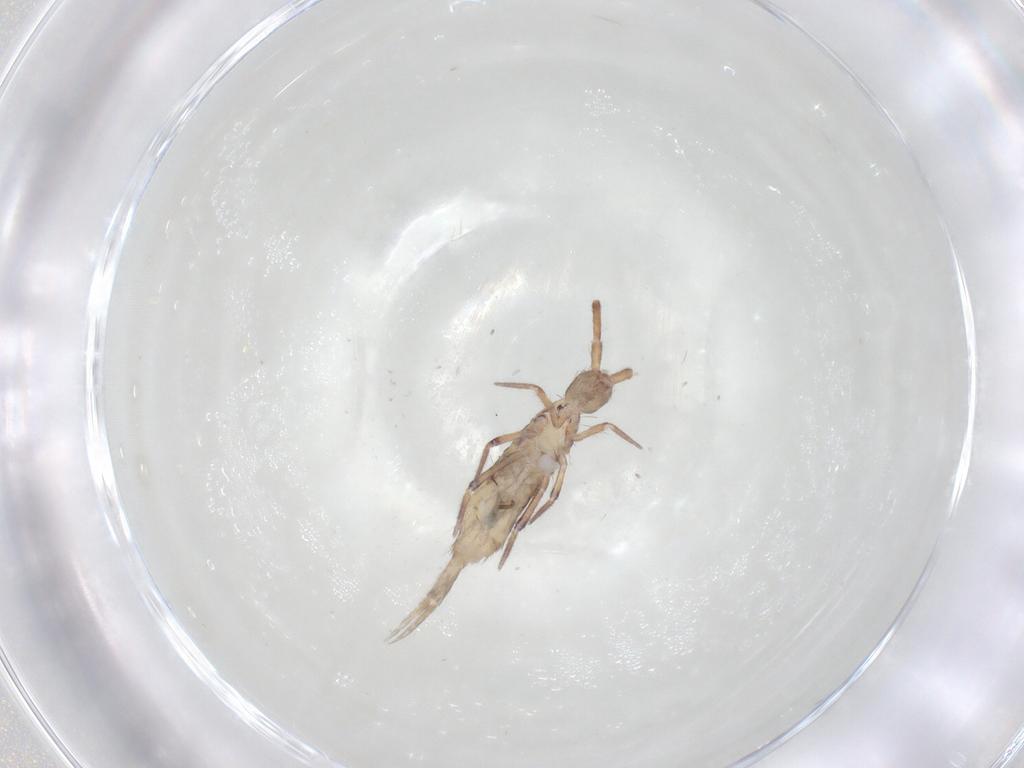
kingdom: Animalia
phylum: Arthropoda
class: Collembola
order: Entomobryomorpha
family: Entomobryidae
